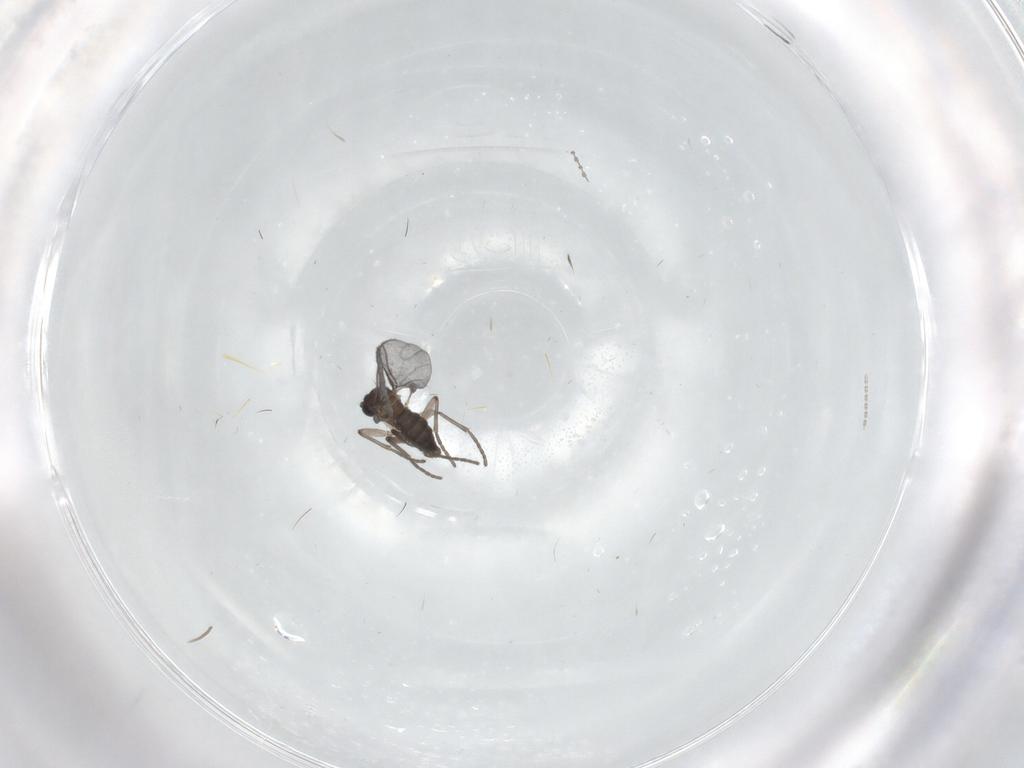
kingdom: Animalia
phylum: Arthropoda
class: Insecta
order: Diptera
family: Sciaridae
